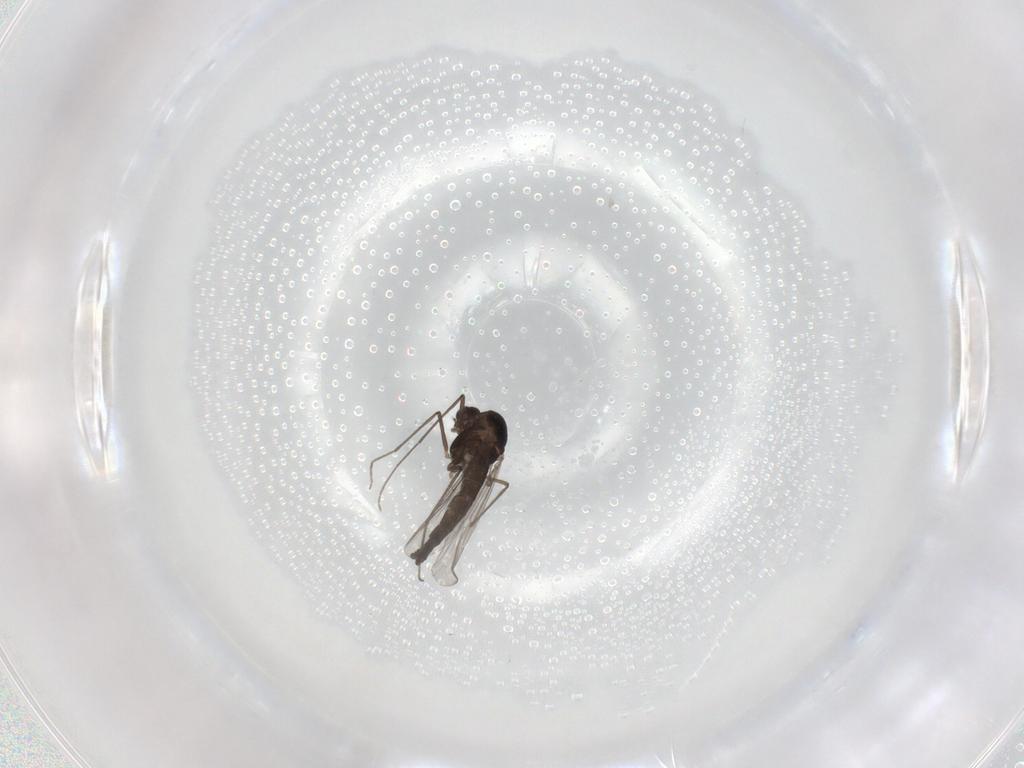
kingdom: Animalia
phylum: Arthropoda
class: Insecta
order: Diptera
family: Chironomidae
